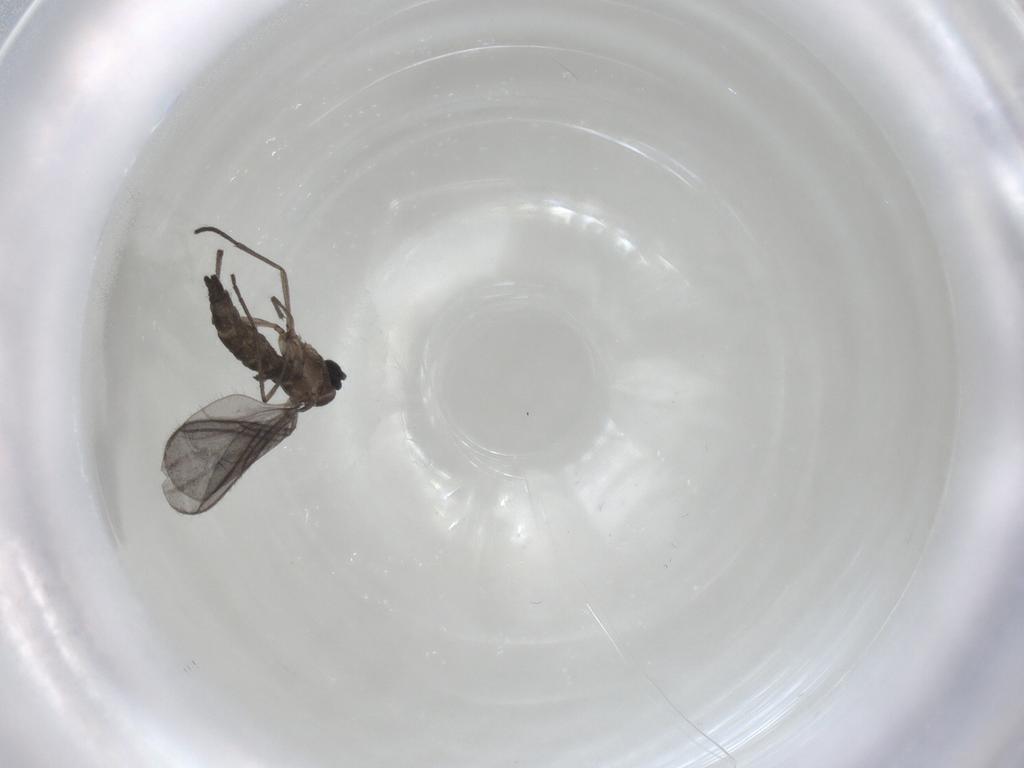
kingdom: Animalia
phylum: Arthropoda
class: Insecta
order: Diptera
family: Sciaridae
